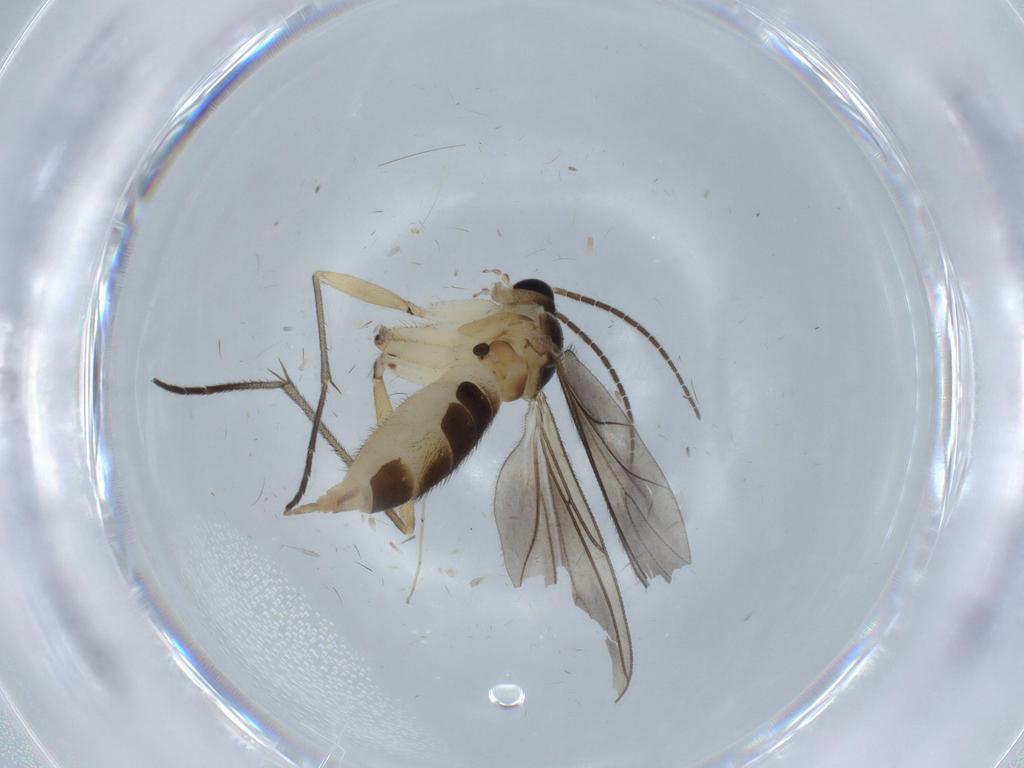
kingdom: Animalia
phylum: Arthropoda
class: Insecta
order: Diptera
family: Sciaridae
